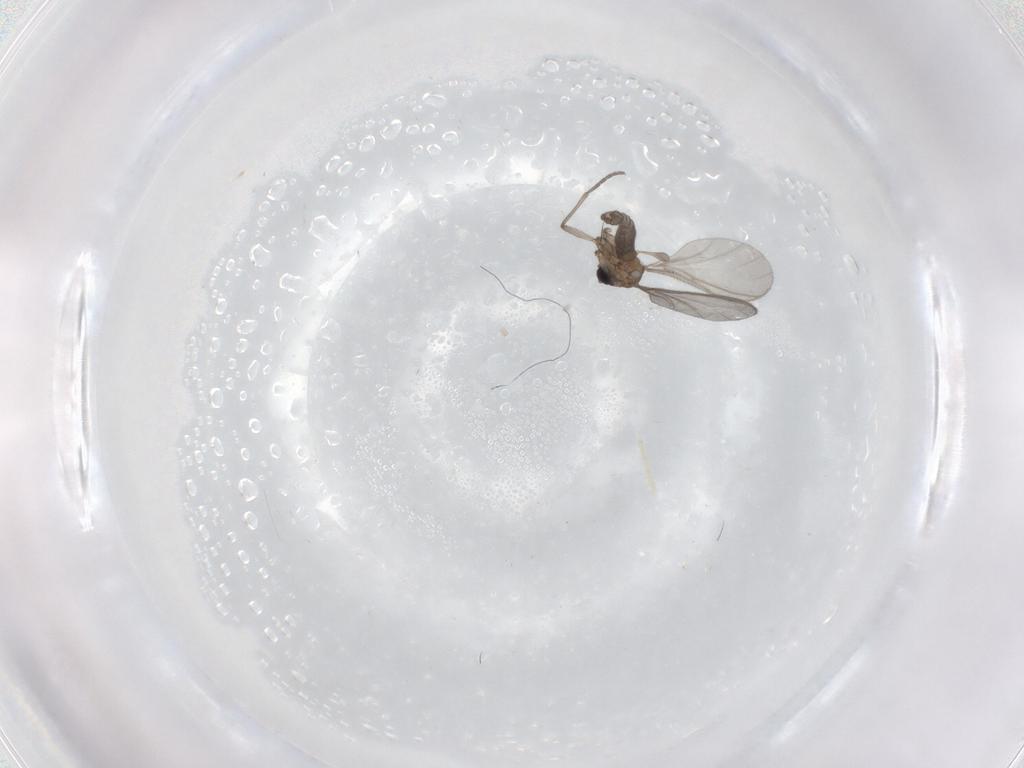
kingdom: Animalia
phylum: Arthropoda
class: Insecta
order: Diptera
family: Sciaridae
